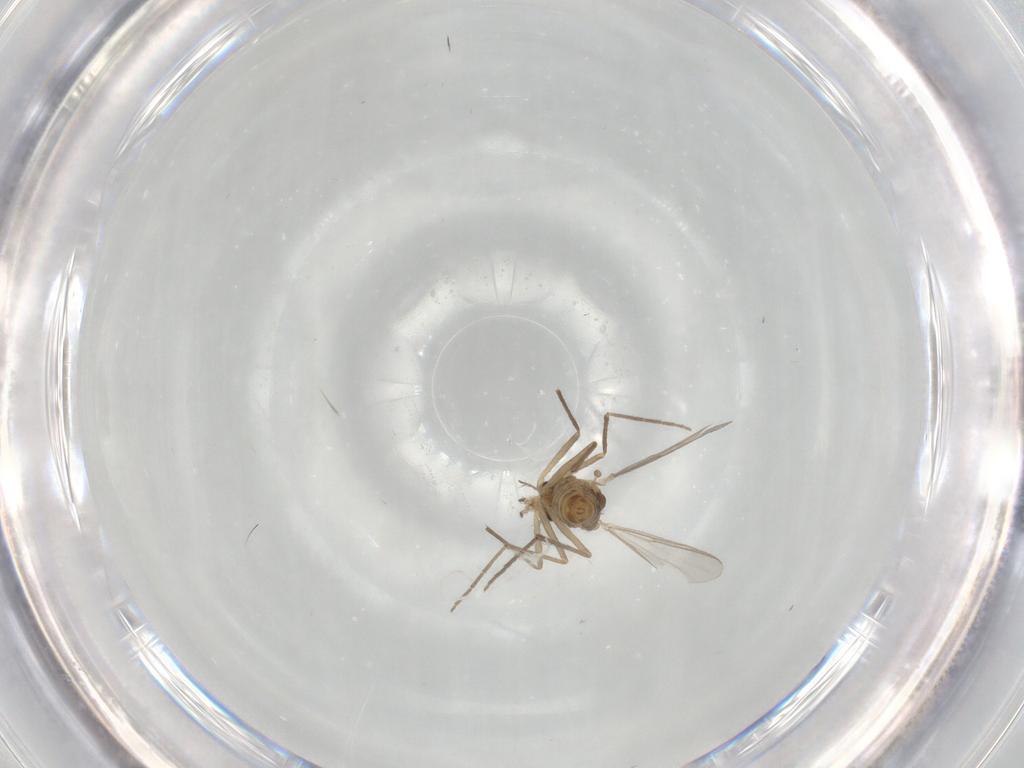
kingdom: Animalia
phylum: Arthropoda
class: Insecta
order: Diptera
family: Chironomidae
